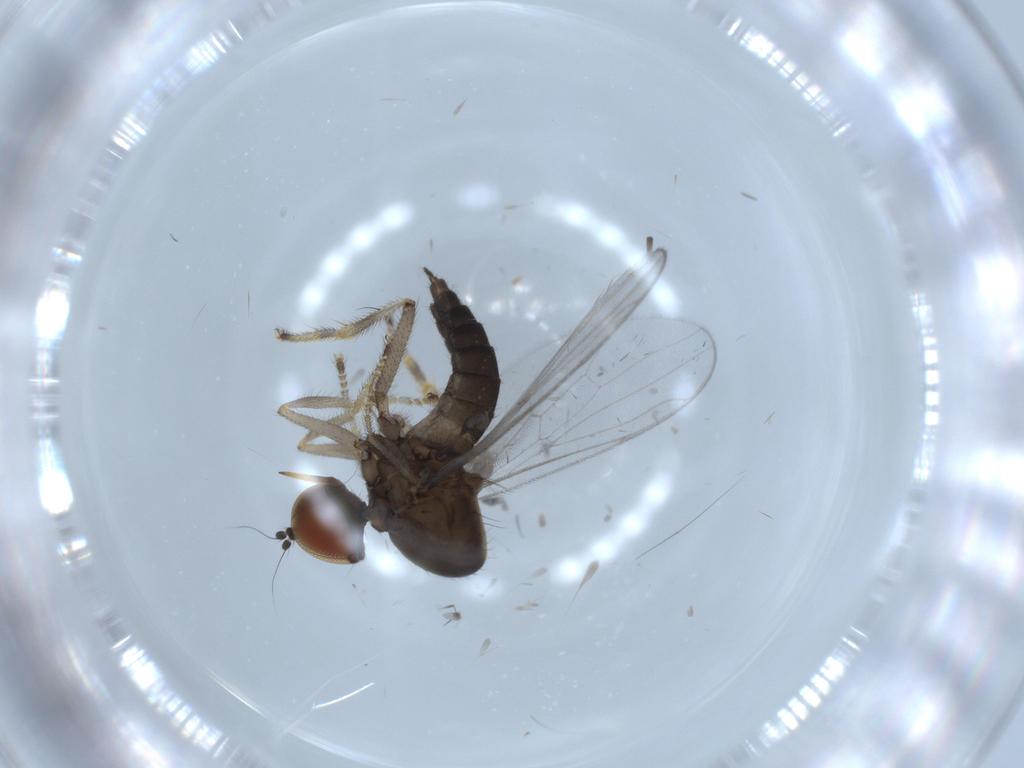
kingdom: Animalia
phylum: Arthropoda
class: Insecta
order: Diptera
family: Hybotidae
